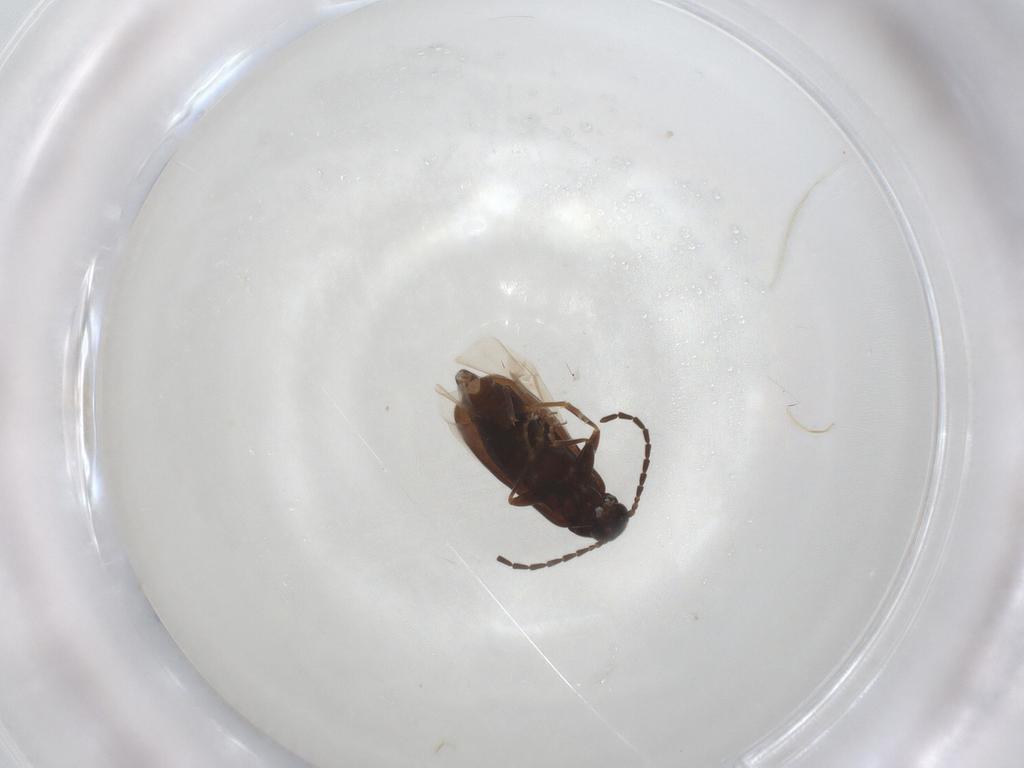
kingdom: Animalia
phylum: Arthropoda
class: Insecta
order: Coleoptera
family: Scraptiidae
